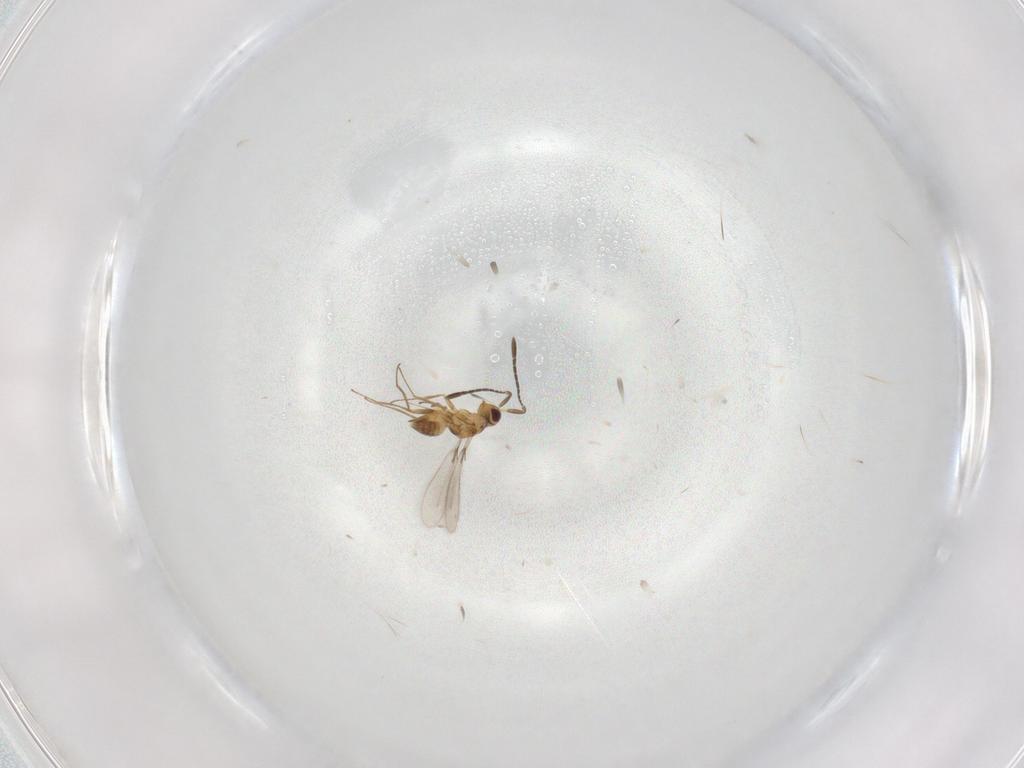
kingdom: Animalia
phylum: Arthropoda
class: Insecta
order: Hymenoptera
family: Mymaridae
